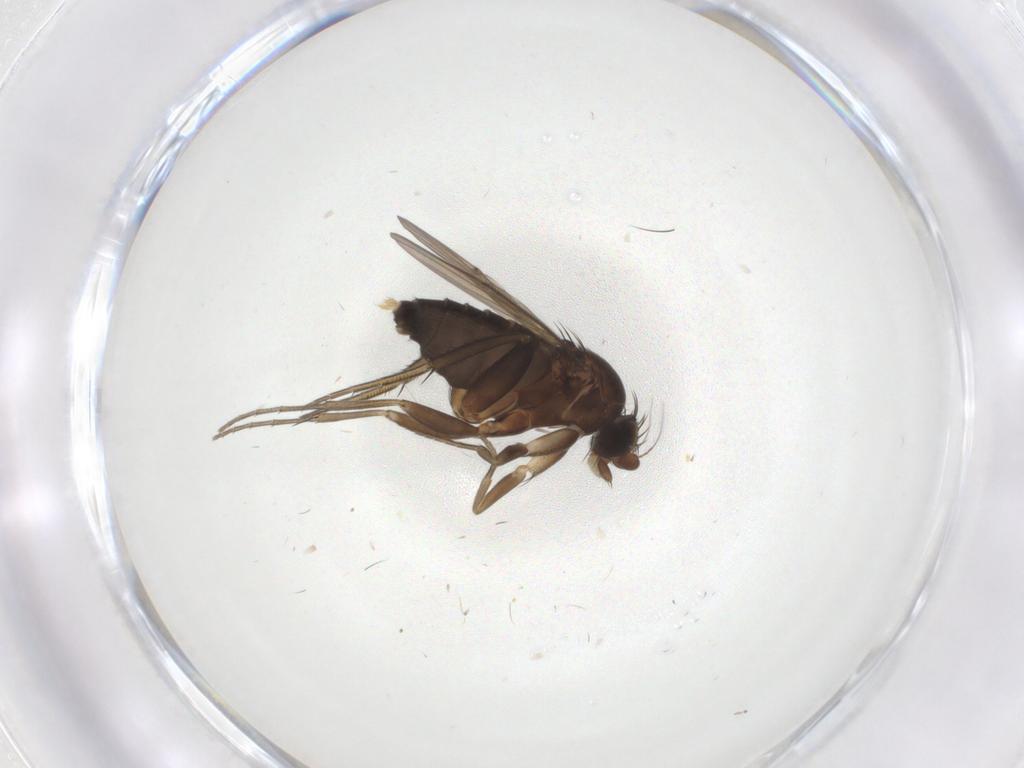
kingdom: Animalia
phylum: Arthropoda
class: Insecta
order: Diptera
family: Phoridae
